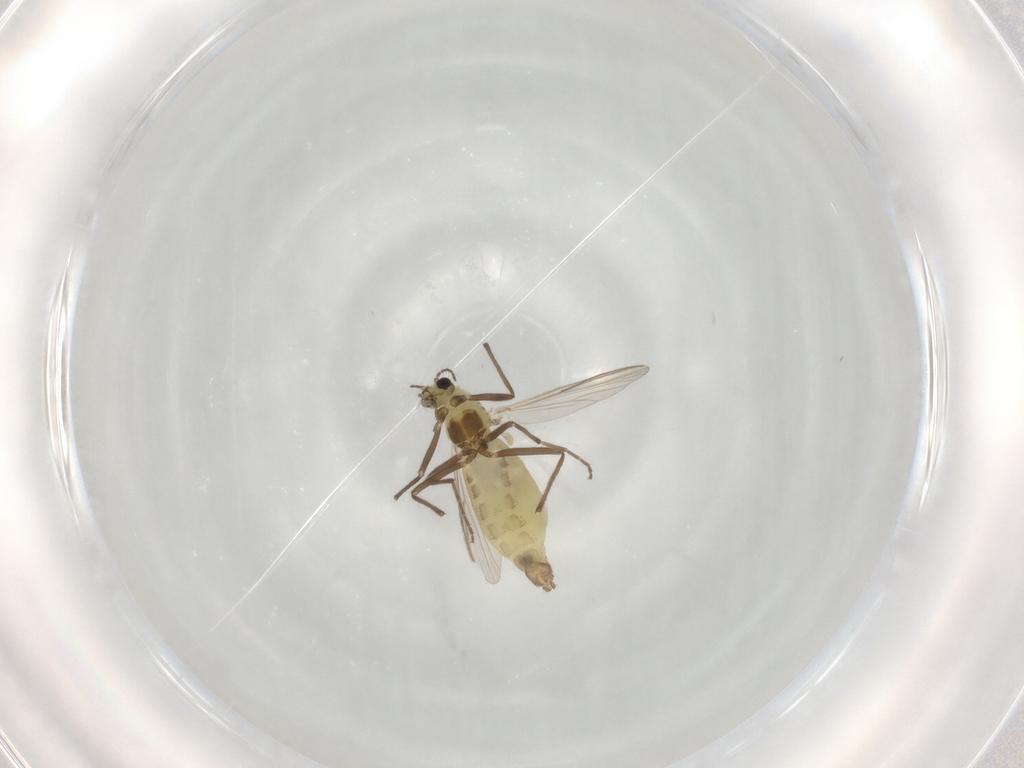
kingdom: Animalia
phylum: Arthropoda
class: Insecta
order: Diptera
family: Chironomidae
